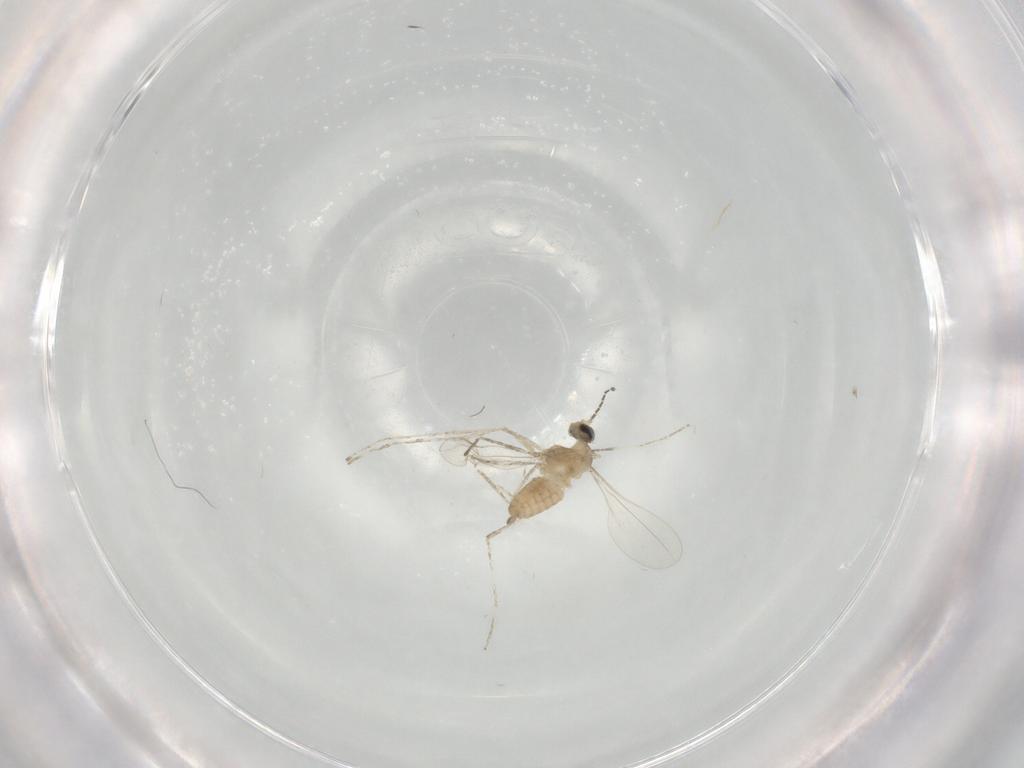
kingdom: Animalia
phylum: Arthropoda
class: Insecta
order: Diptera
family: Cecidomyiidae
